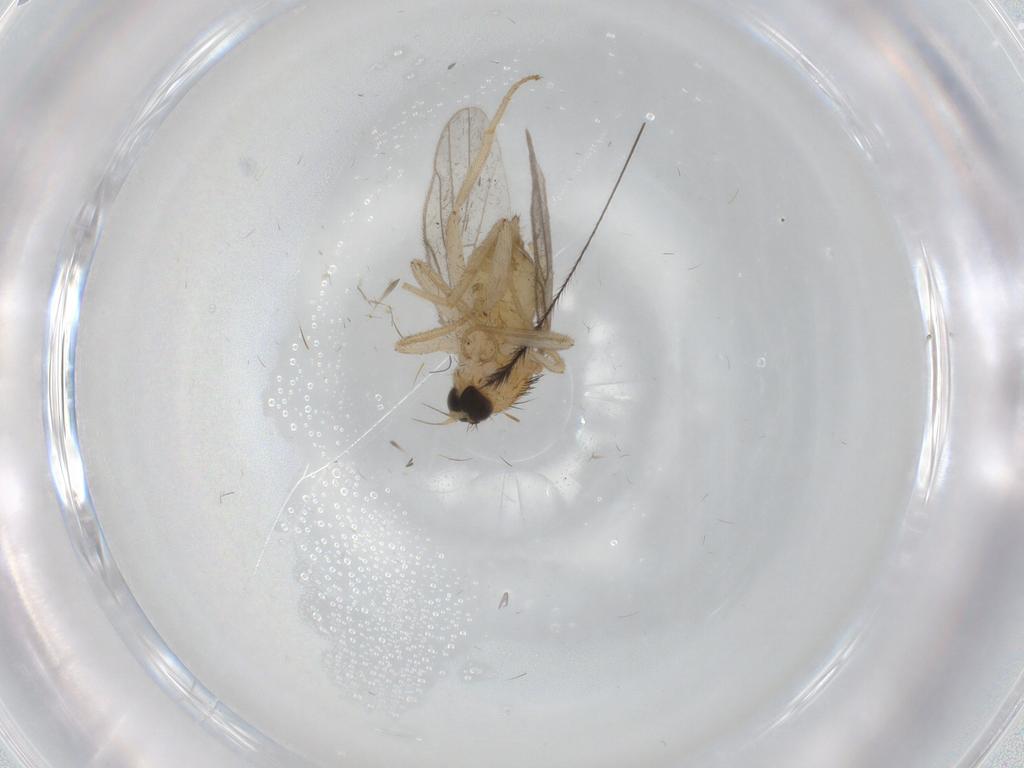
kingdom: Animalia
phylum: Arthropoda
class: Insecta
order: Diptera
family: Hybotidae
